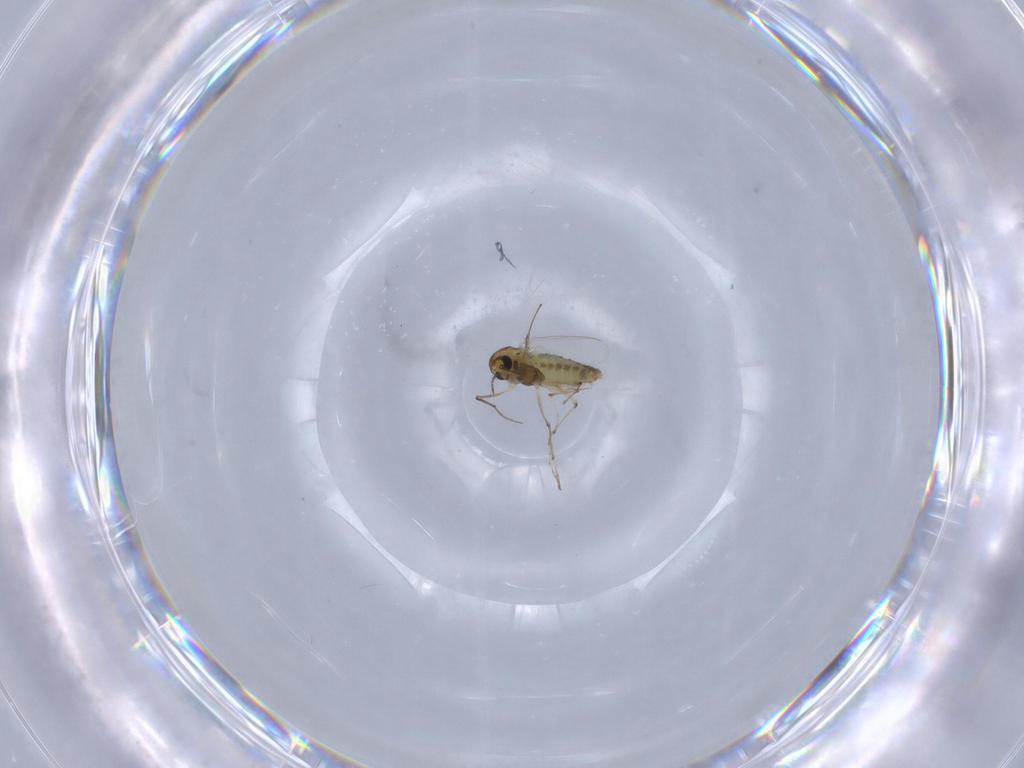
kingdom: Animalia
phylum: Arthropoda
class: Insecta
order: Diptera
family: Chironomidae
